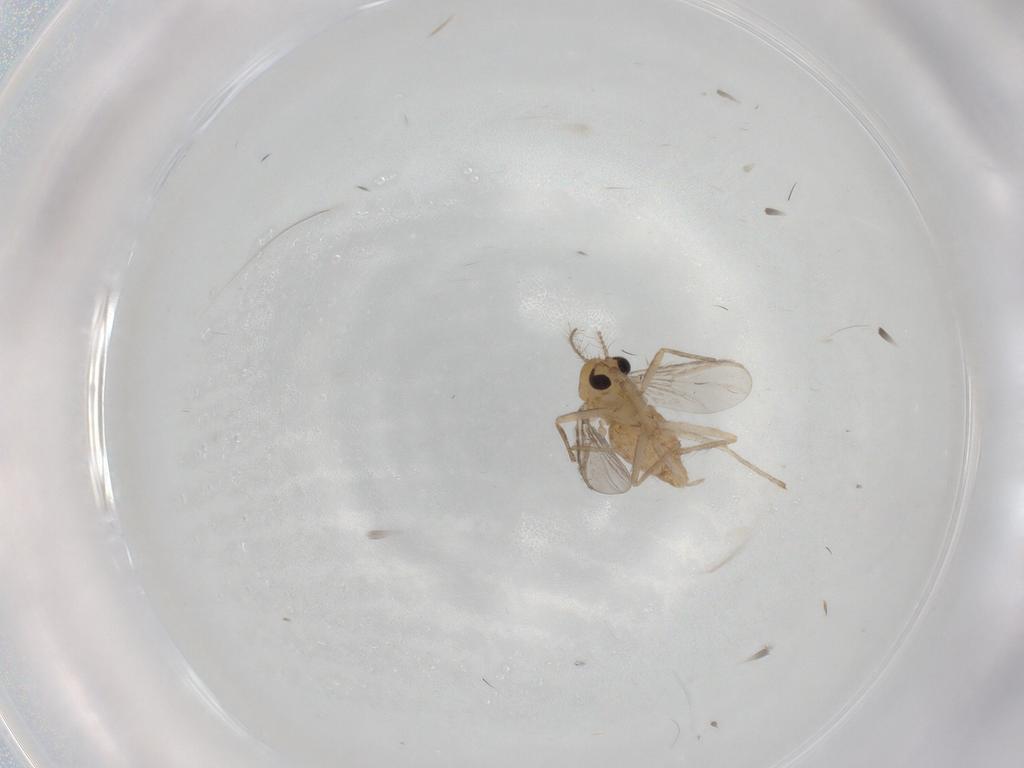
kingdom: Animalia
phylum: Arthropoda
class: Insecta
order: Diptera
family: Chironomidae
